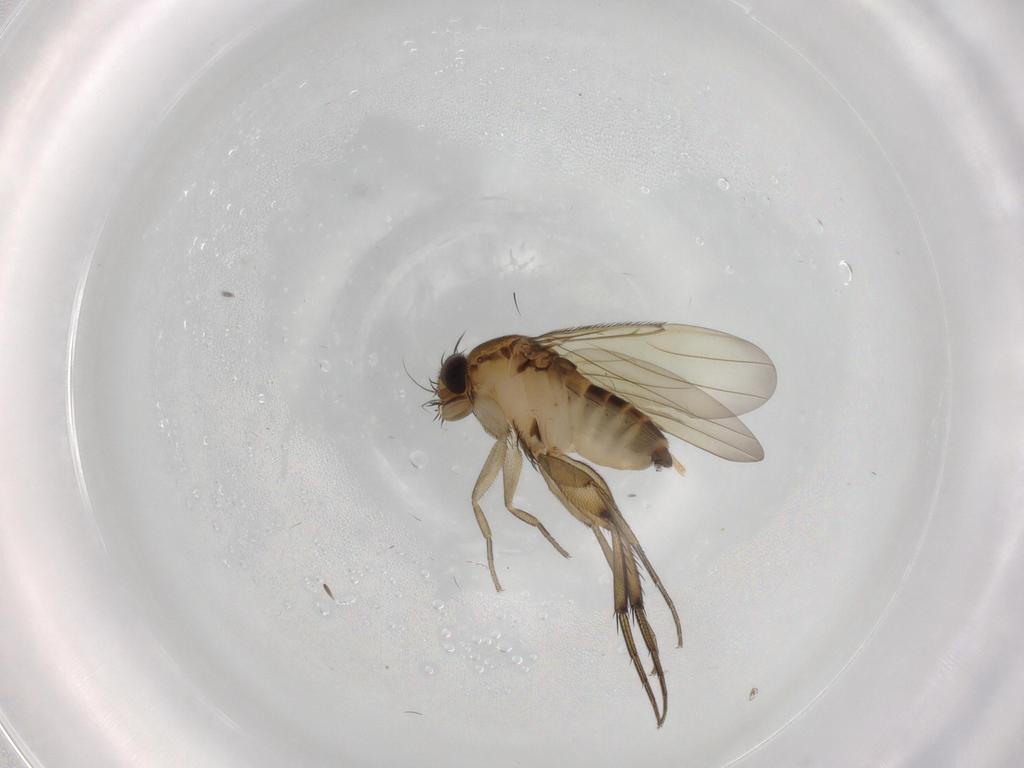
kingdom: Animalia
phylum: Arthropoda
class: Insecta
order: Diptera
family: Phoridae
